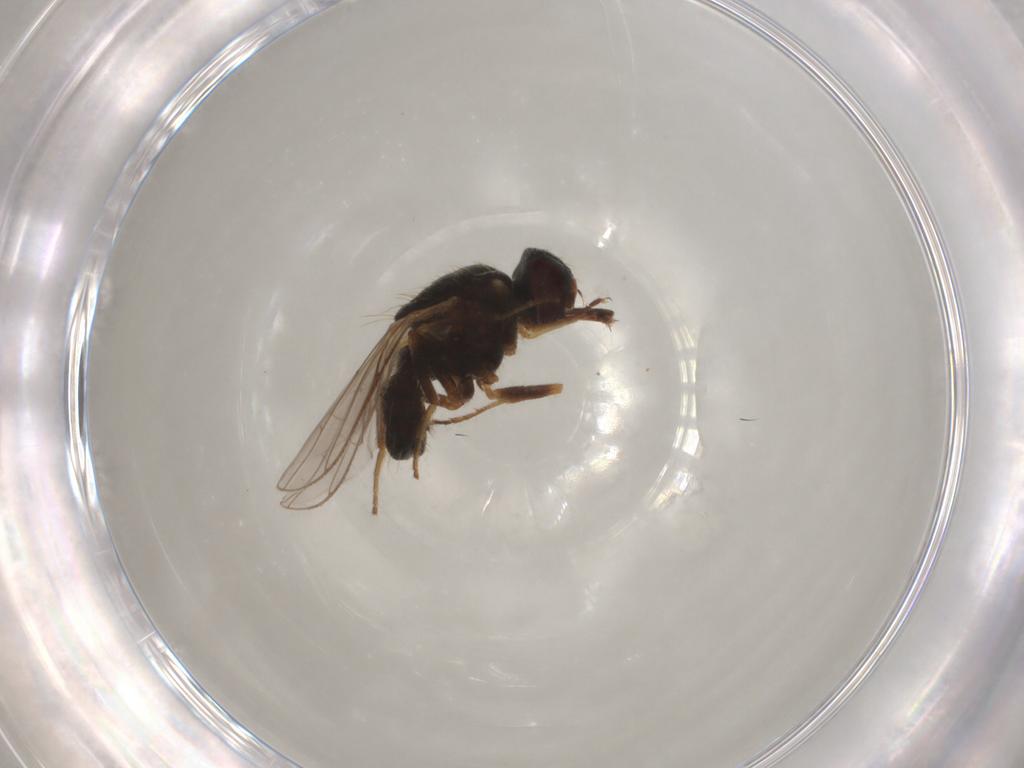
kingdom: Animalia
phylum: Arthropoda
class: Insecta
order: Diptera
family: Muscidae
